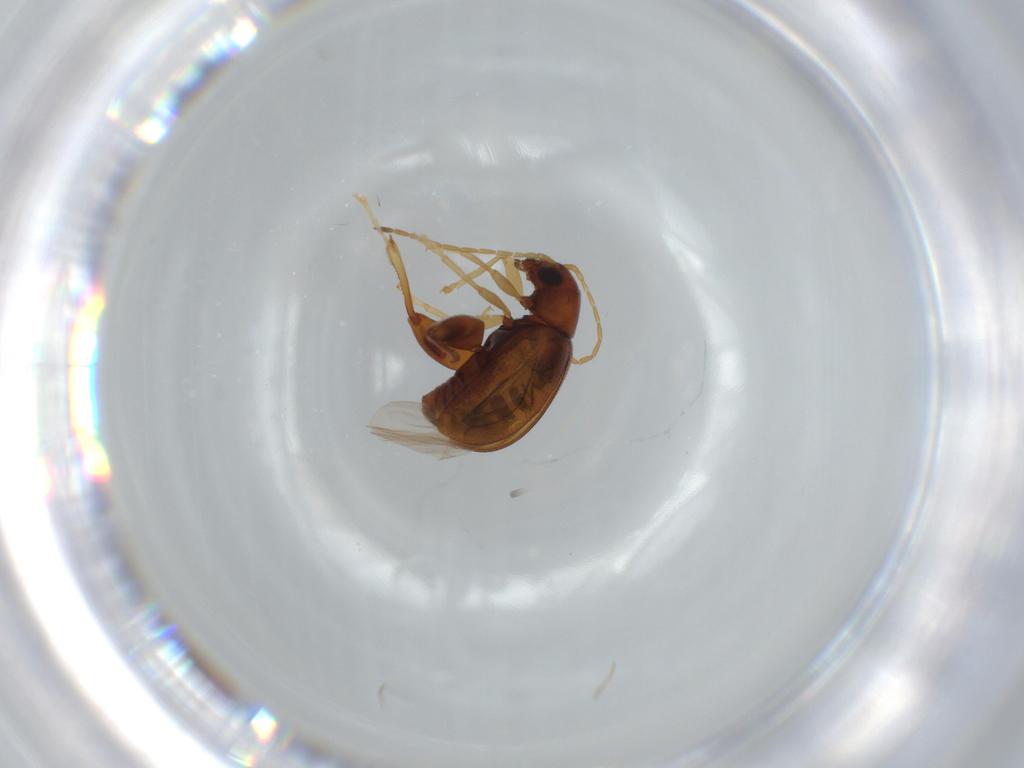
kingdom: Animalia
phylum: Arthropoda
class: Insecta
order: Coleoptera
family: Chrysomelidae
